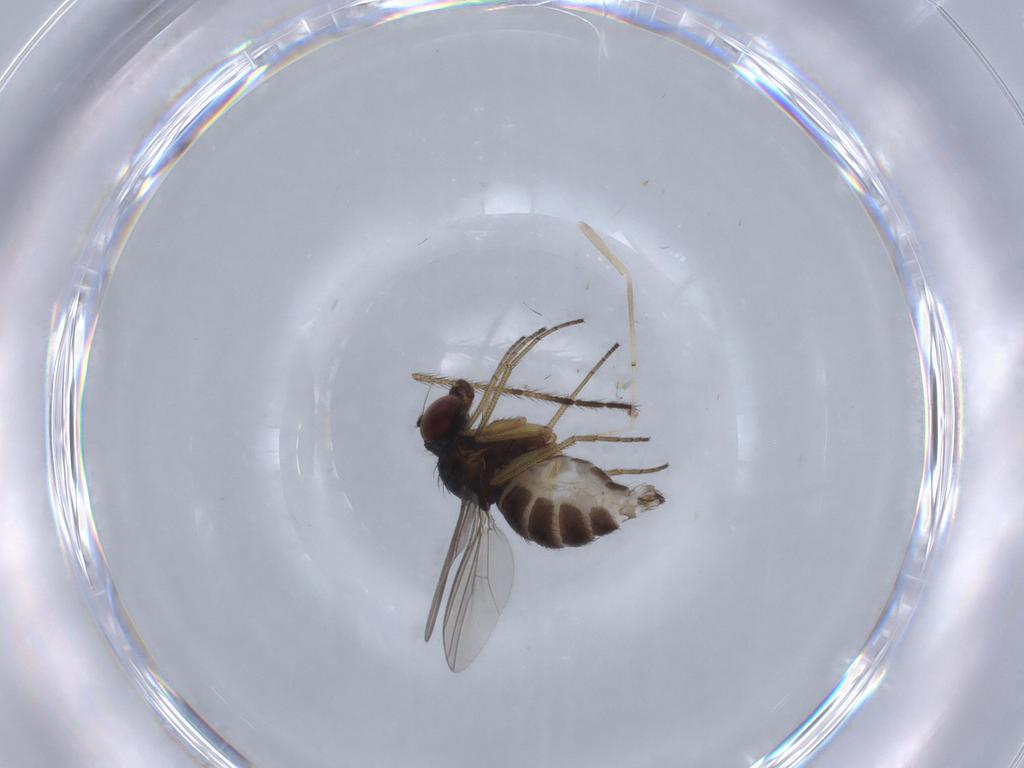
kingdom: Animalia
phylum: Arthropoda
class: Insecta
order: Diptera
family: Dolichopodidae
